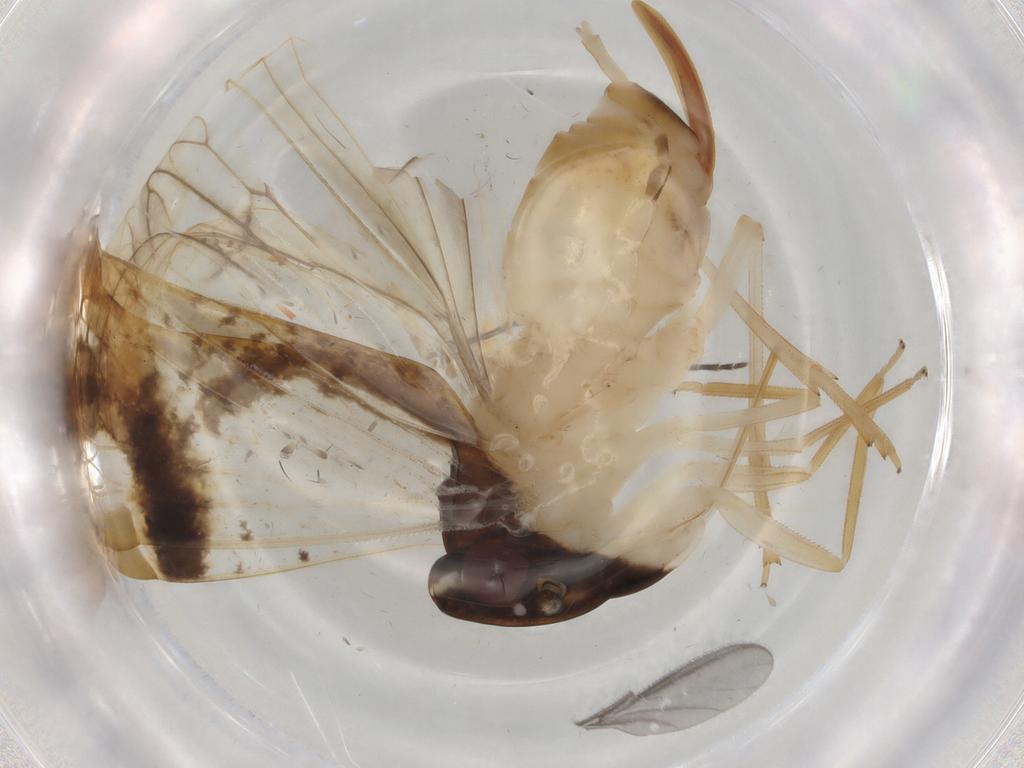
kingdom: Animalia
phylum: Arthropoda
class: Insecta
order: Hemiptera
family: Cixiidae
